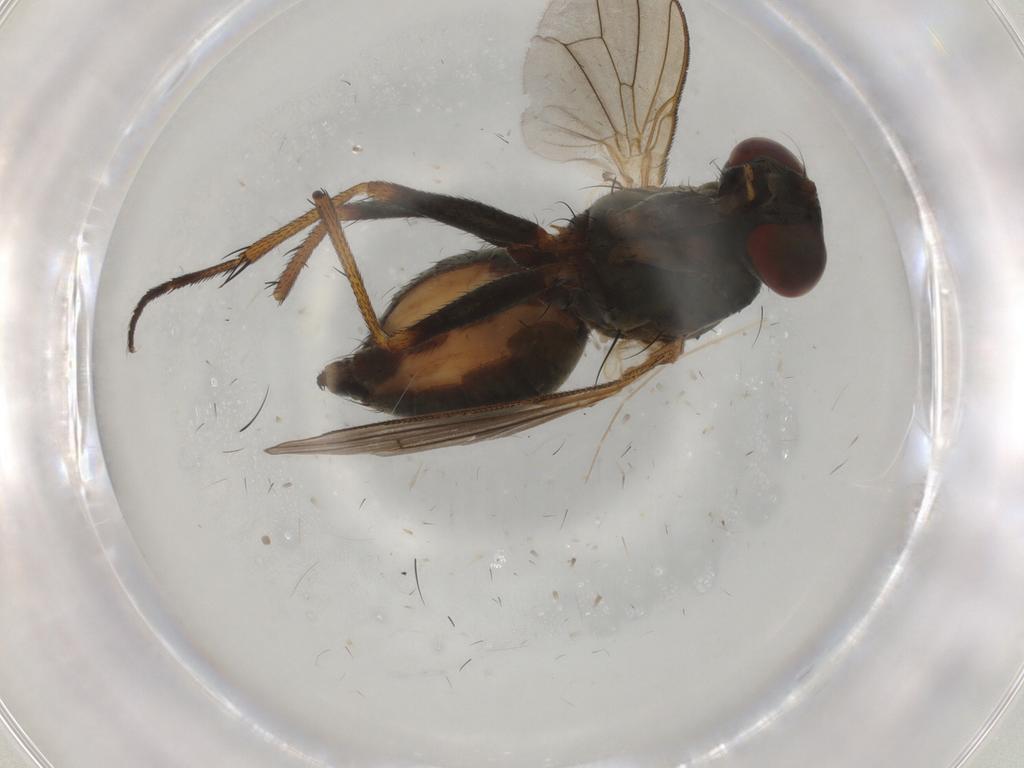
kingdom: Animalia
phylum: Arthropoda
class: Insecta
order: Diptera
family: Muscidae
